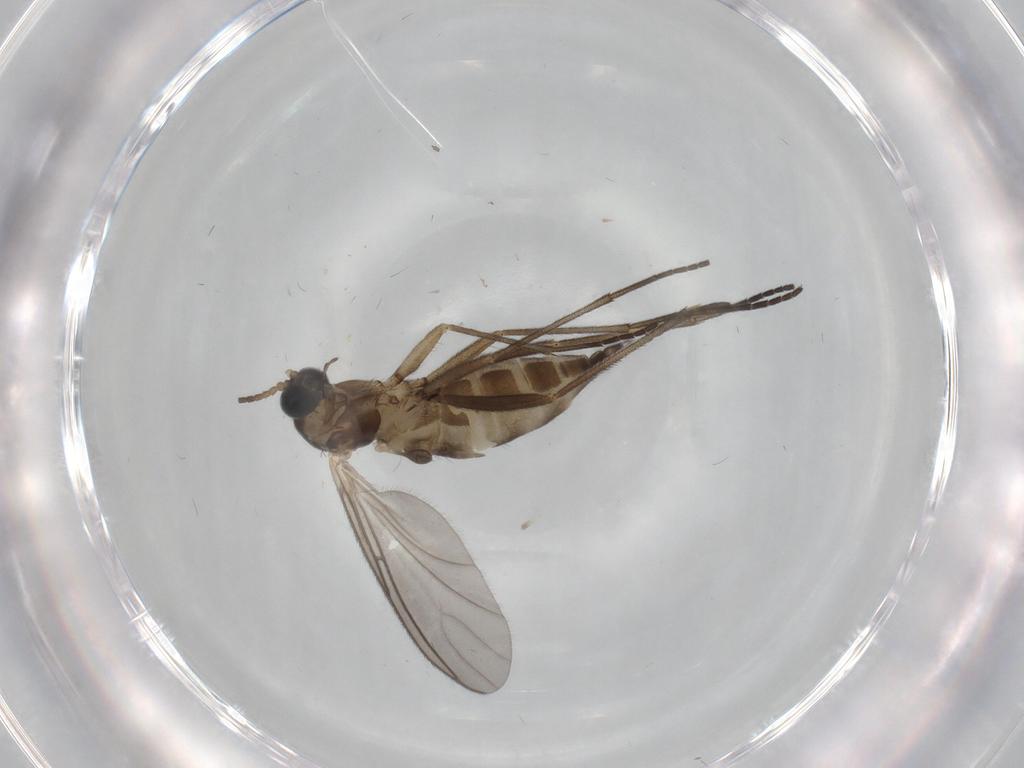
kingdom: Animalia
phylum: Arthropoda
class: Insecta
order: Diptera
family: Sciaridae
